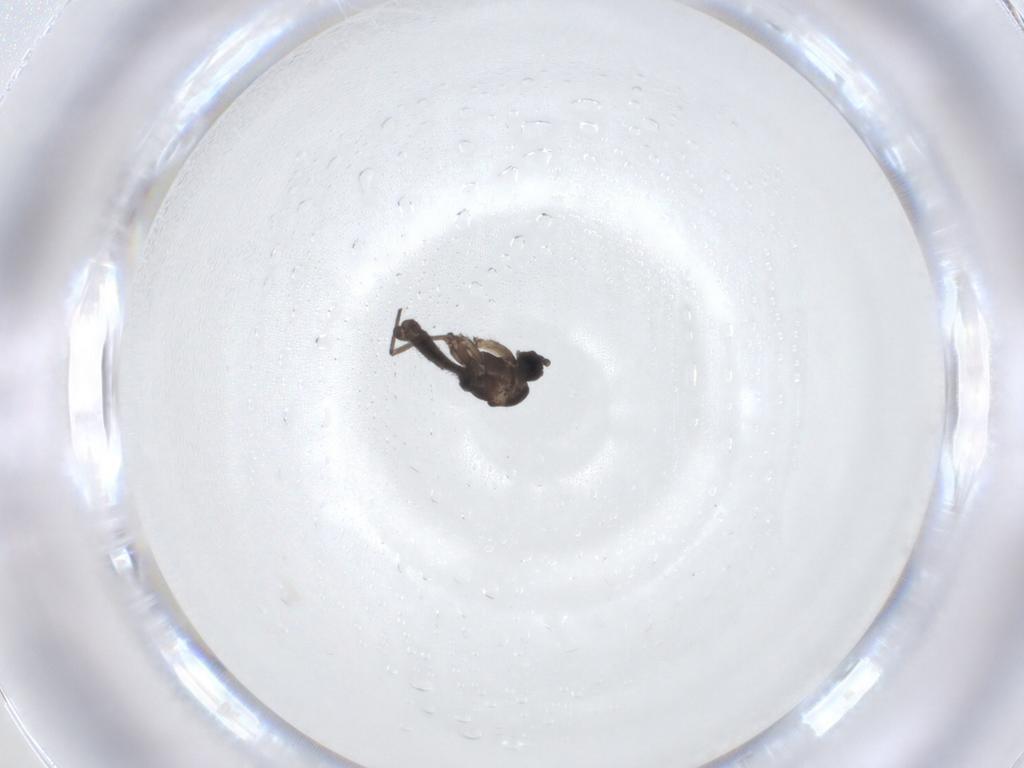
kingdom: Animalia
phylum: Arthropoda
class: Insecta
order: Diptera
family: Sciaridae
